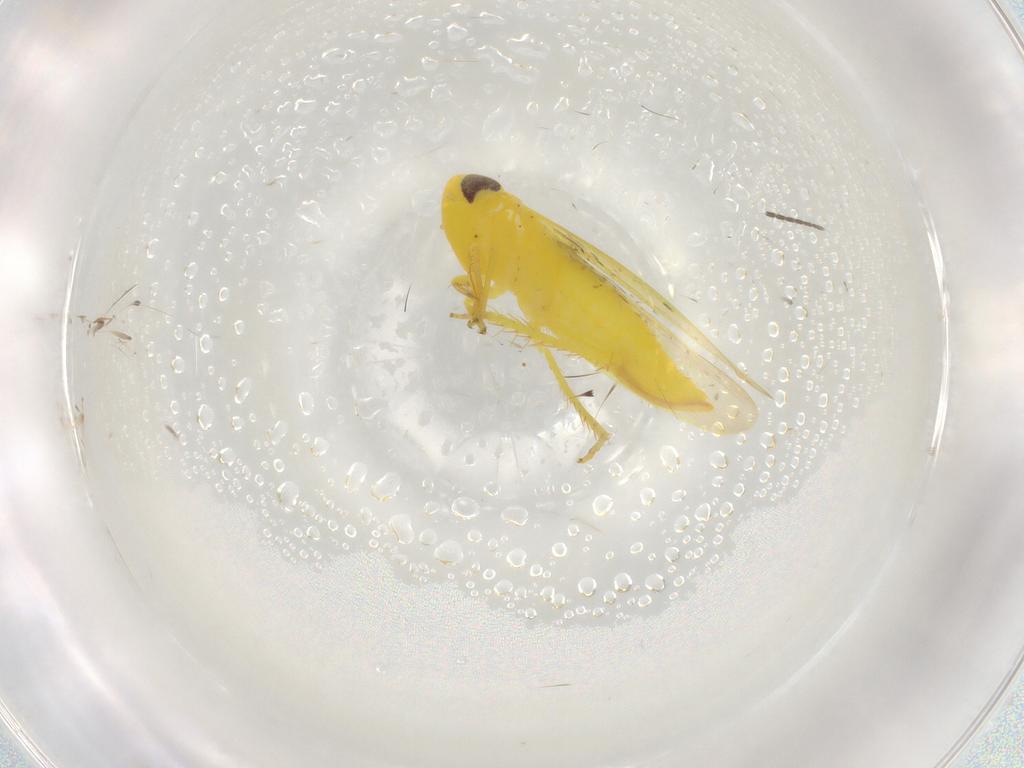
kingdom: Animalia
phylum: Arthropoda
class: Insecta
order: Hemiptera
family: Cicadellidae
